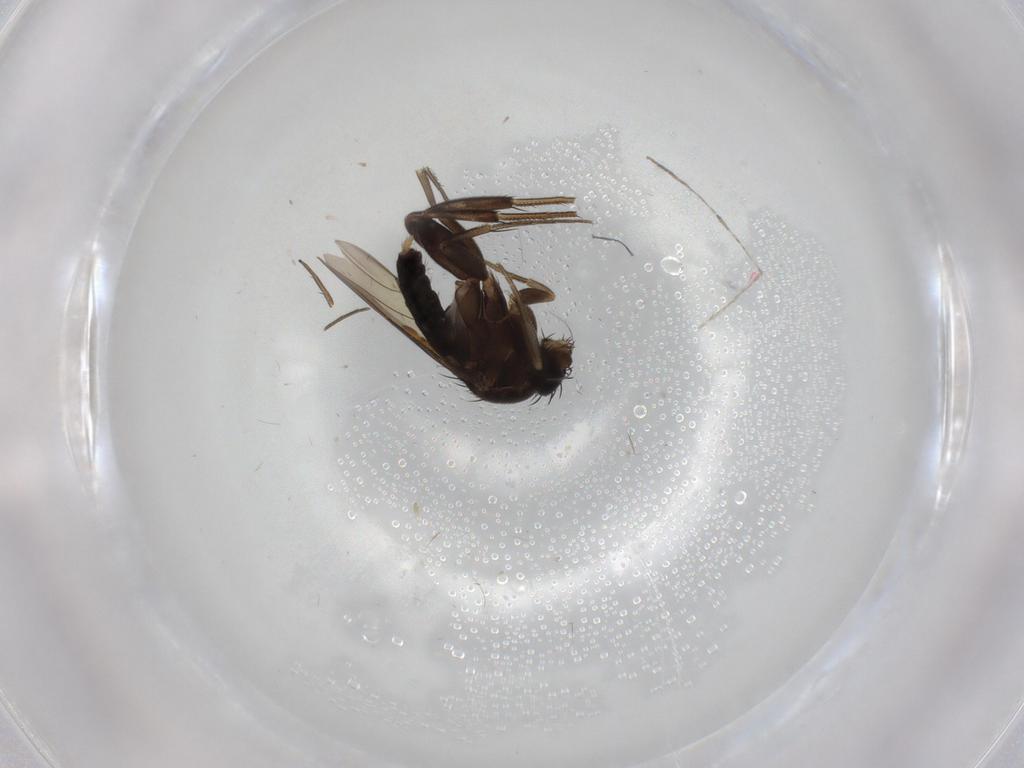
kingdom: Animalia
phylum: Arthropoda
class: Insecta
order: Diptera
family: Phoridae
